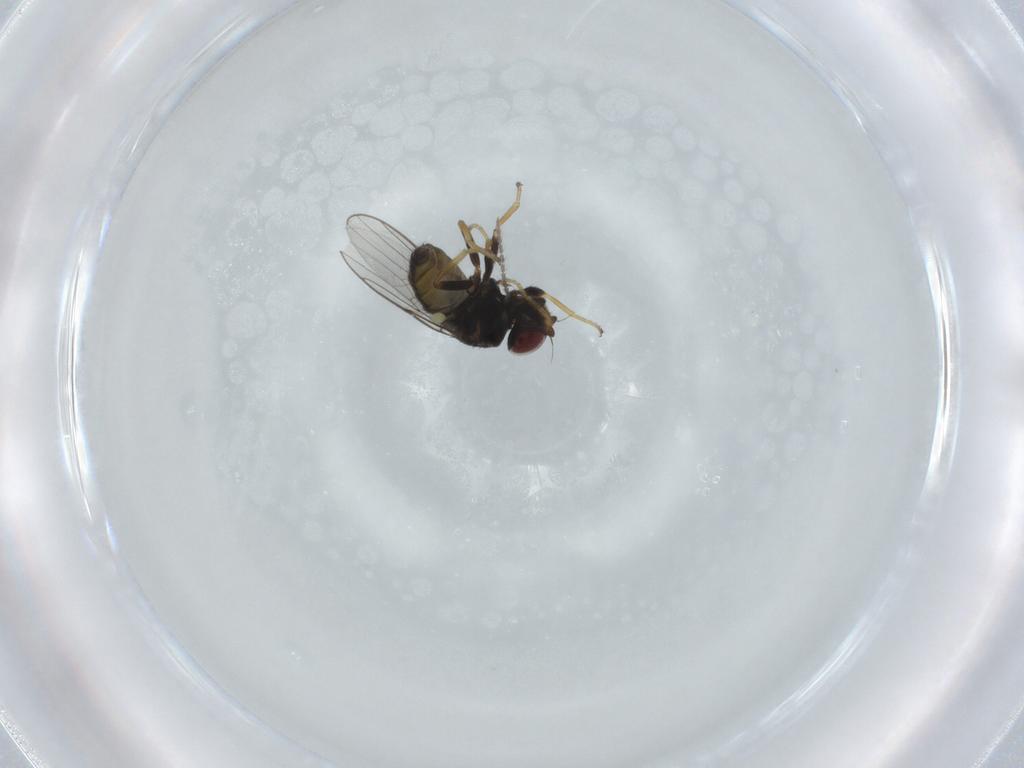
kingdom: Animalia
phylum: Arthropoda
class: Insecta
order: Diptera
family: Chloropidae
